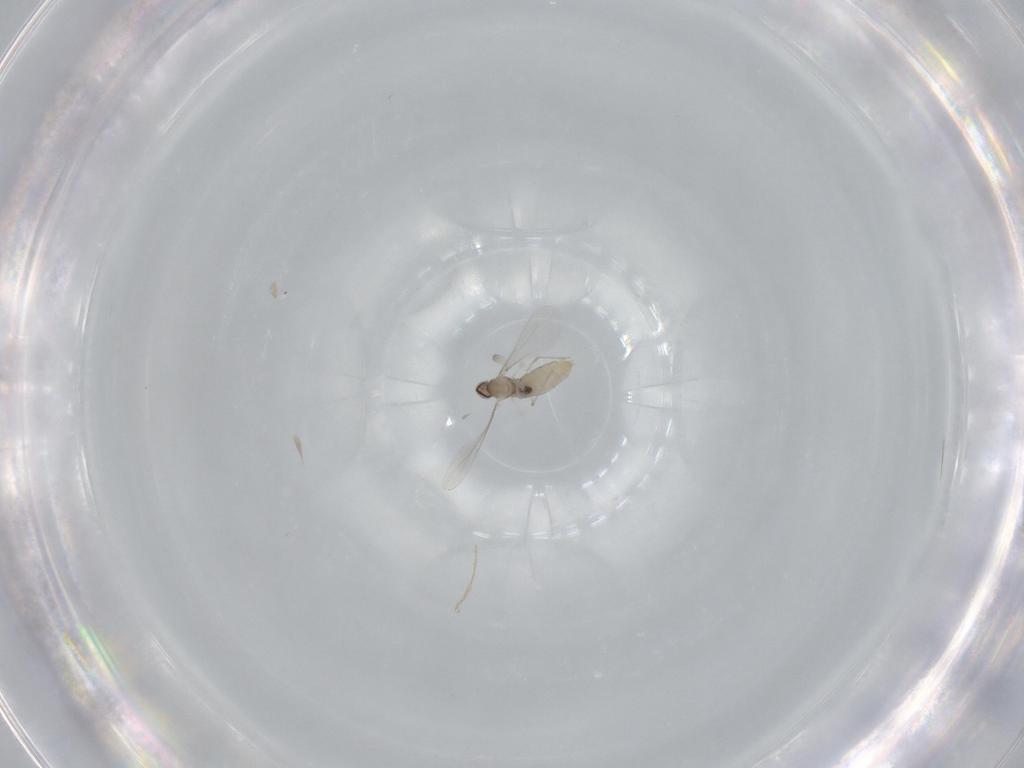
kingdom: Animalia
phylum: Arthropoda
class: Insecta
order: Diptera
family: Cecidomyiidae
